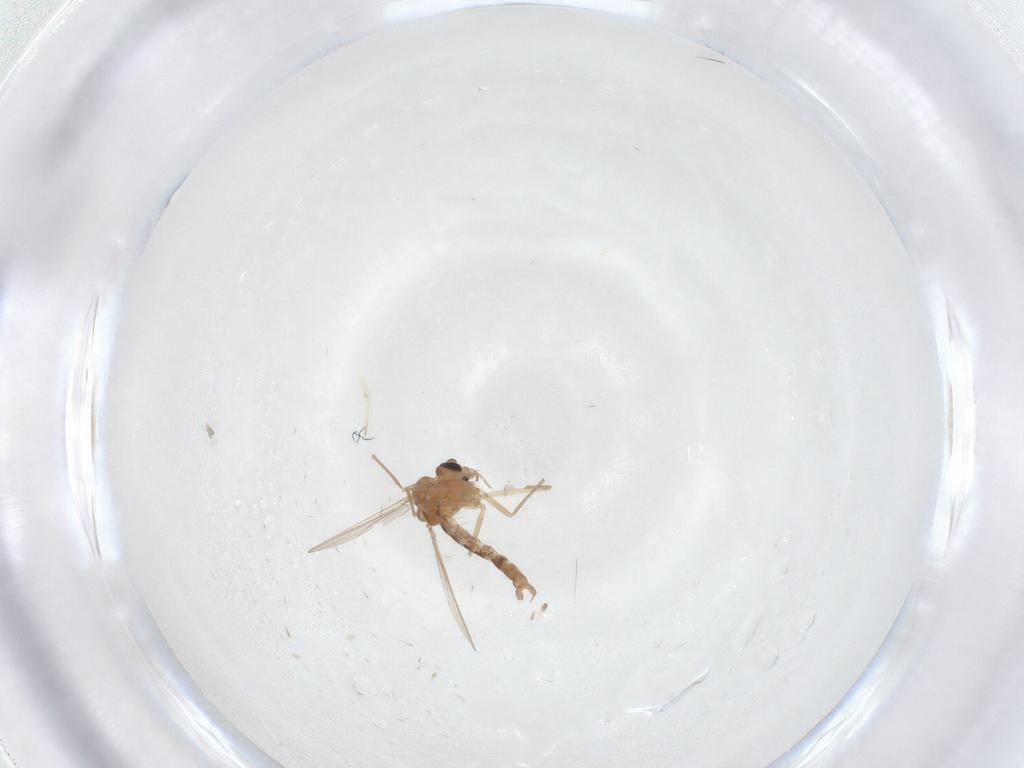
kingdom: Animalia
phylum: Arthropoda
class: Insecta
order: Diptera
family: Chironomidae
